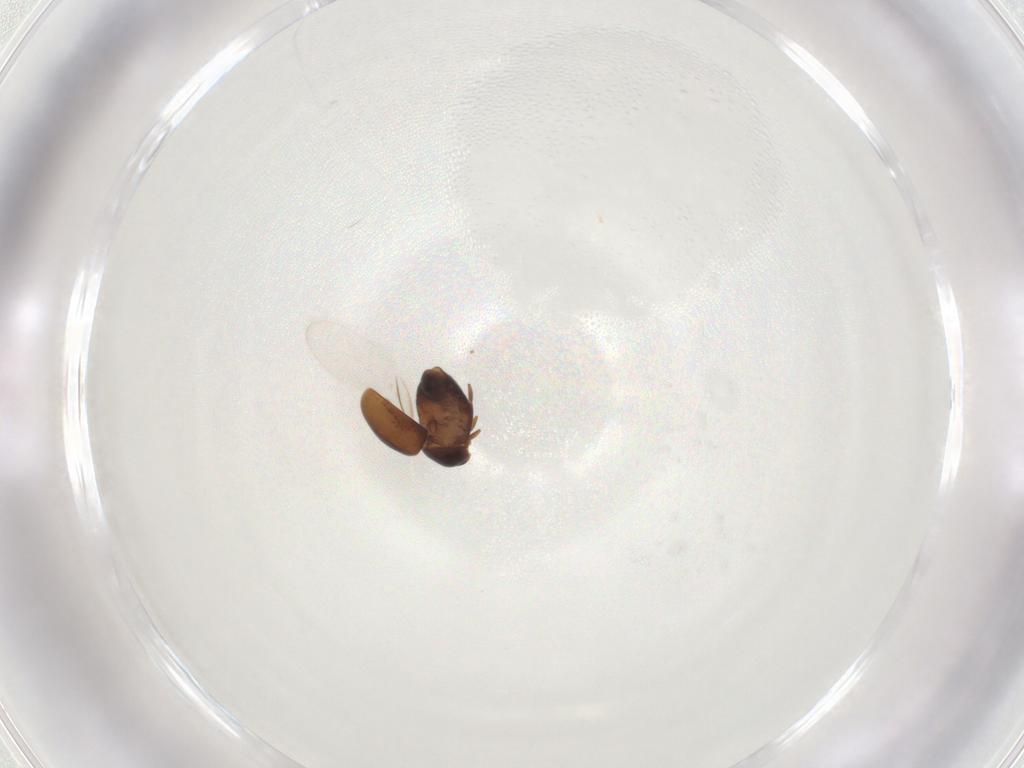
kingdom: Animalia
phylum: Arthropoda
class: Insecta
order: Coleoptera
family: Corylophidae
